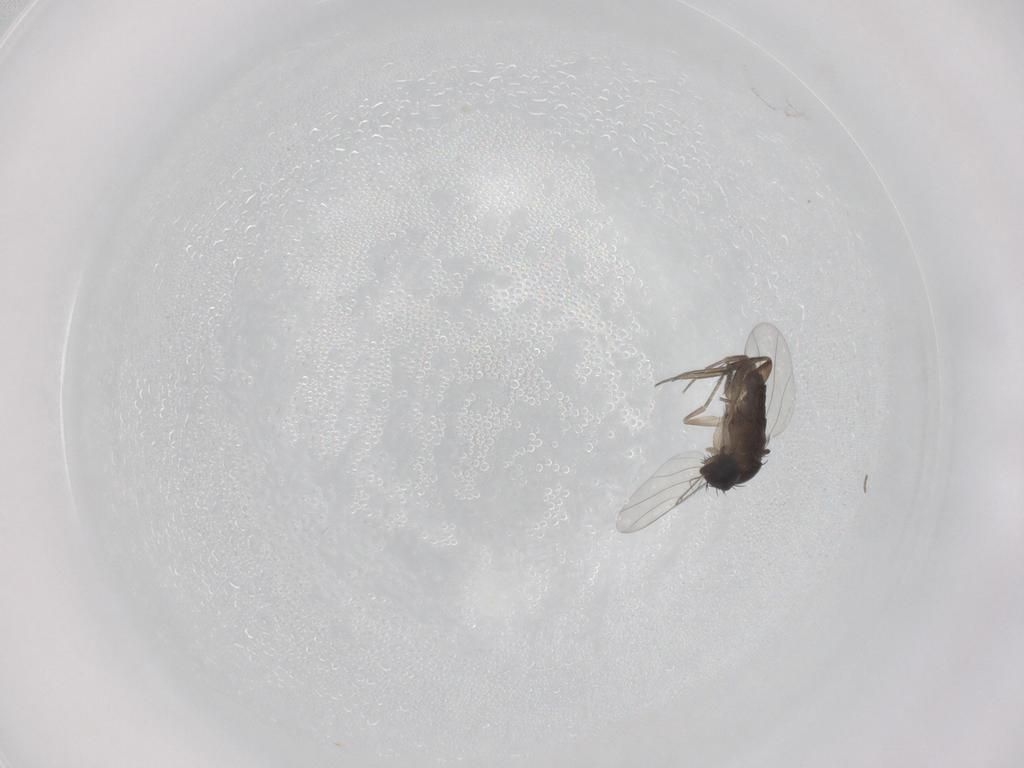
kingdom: Animalia
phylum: Arthropoda
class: Insecta
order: Diptera
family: Phoridae
